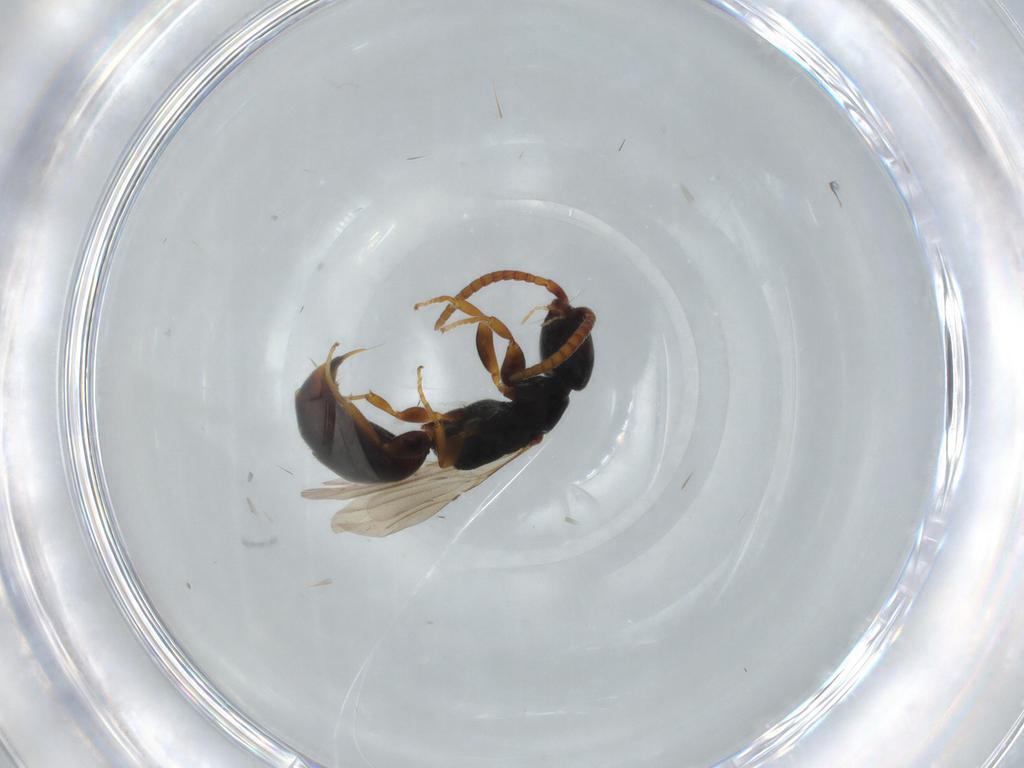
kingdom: Animalia
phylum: Arthropoda
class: Insecta
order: Hymenoptera
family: Bethylidae
